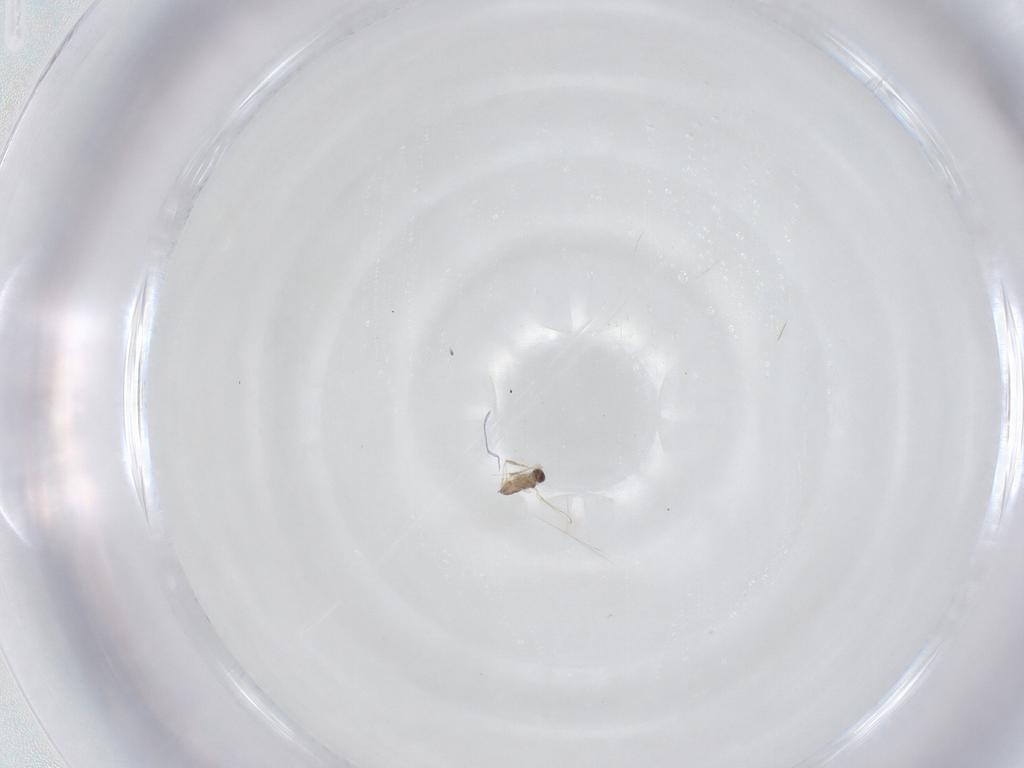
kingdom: Animalia
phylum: Arthropoda
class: Insecta
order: Hymenoptera
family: Mymaridae
